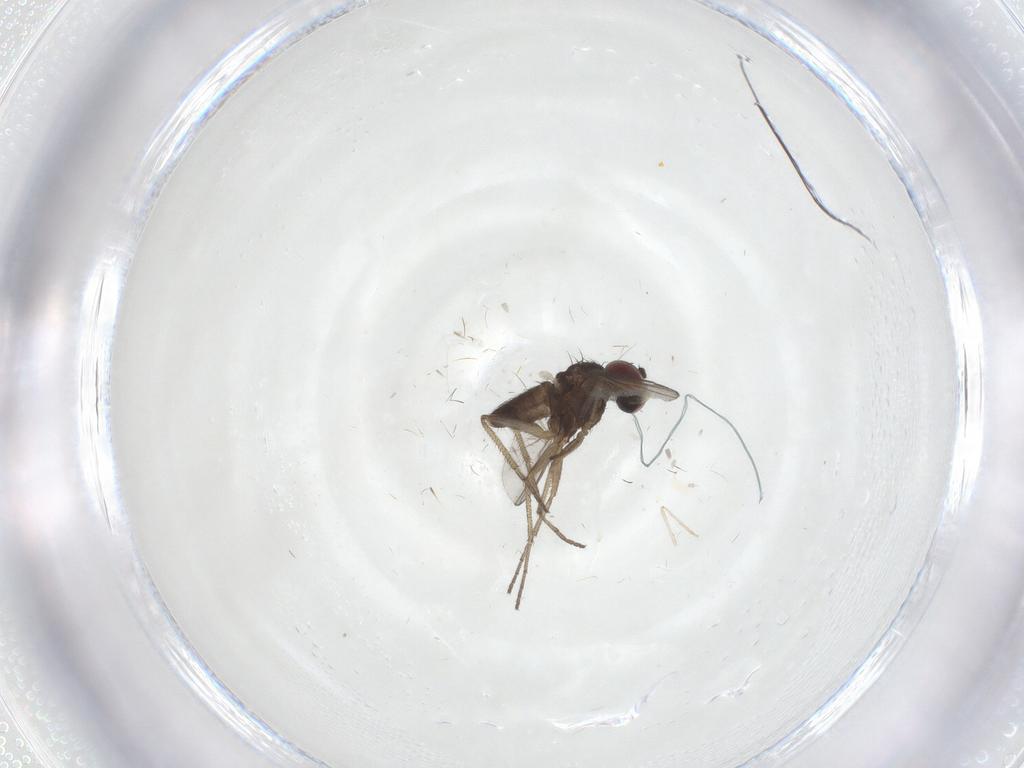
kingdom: Animalia
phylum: Arthropoda
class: Insecta
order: Diptera
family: Dolichopodidae
